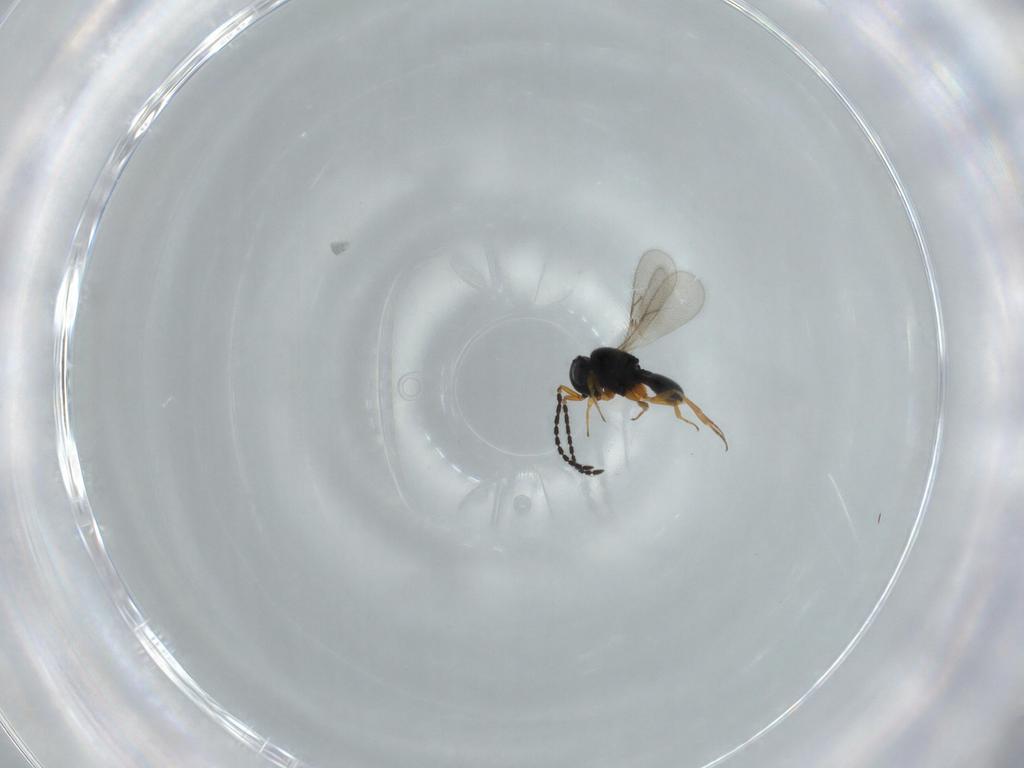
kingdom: Animalia
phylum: Arthropoda
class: Insecta
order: Hymenoptera
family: Scelionidae
